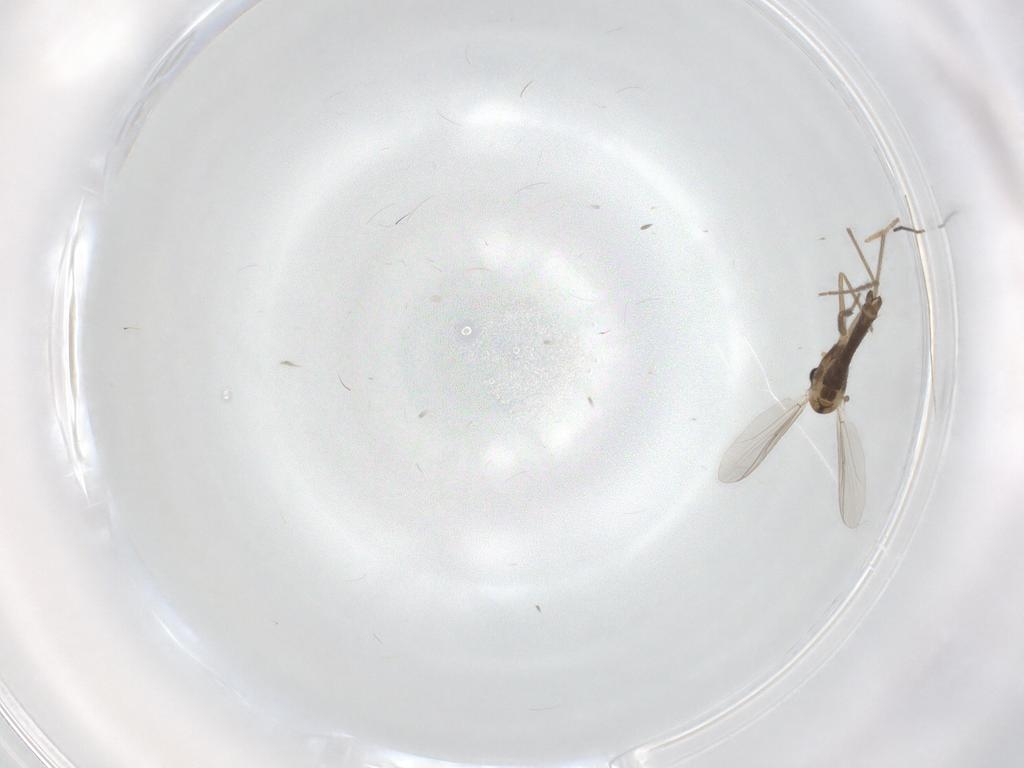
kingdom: Animalia
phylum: Arthropoda
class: Insecta
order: Diptera
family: Chironomidae
